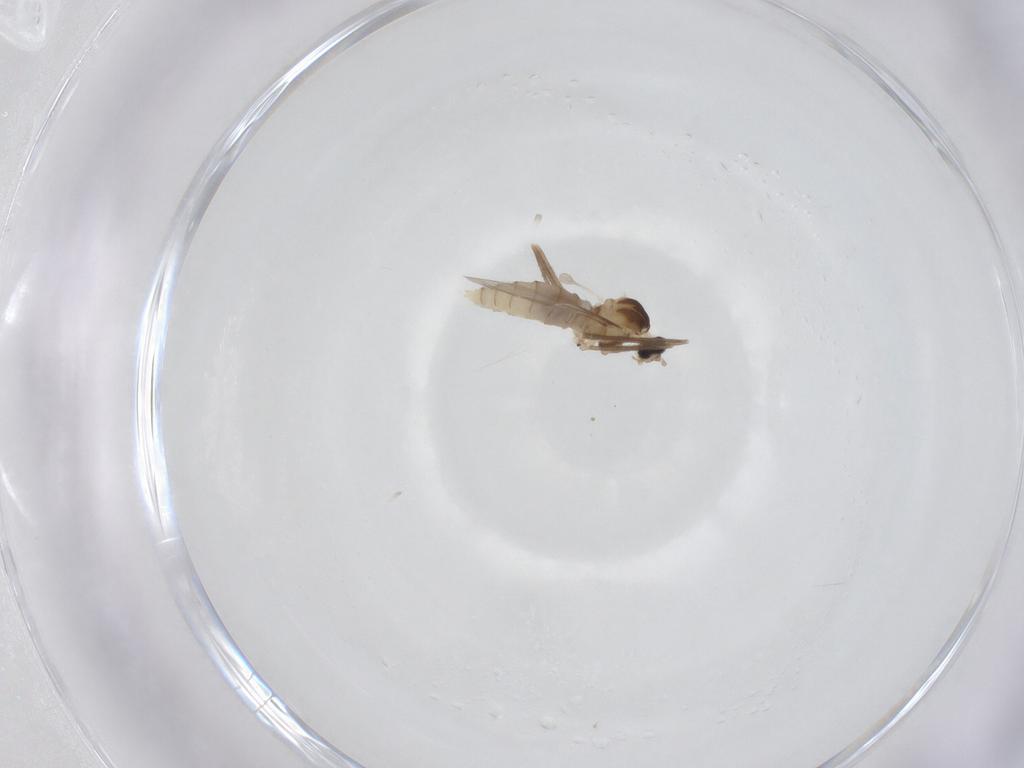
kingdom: Animalia
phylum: Arthropoda
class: Insecta
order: Diptera
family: Cecidomyiidae
